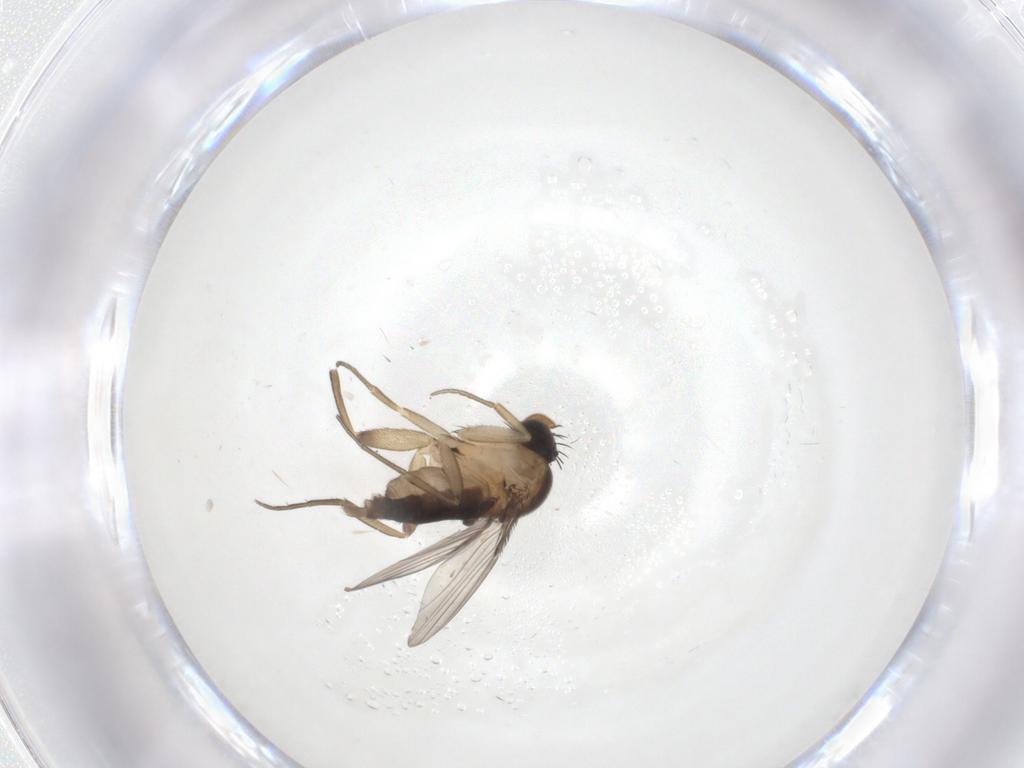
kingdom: Animalia
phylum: Arthropoda
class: Insecta
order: Diptera
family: Phoridae
